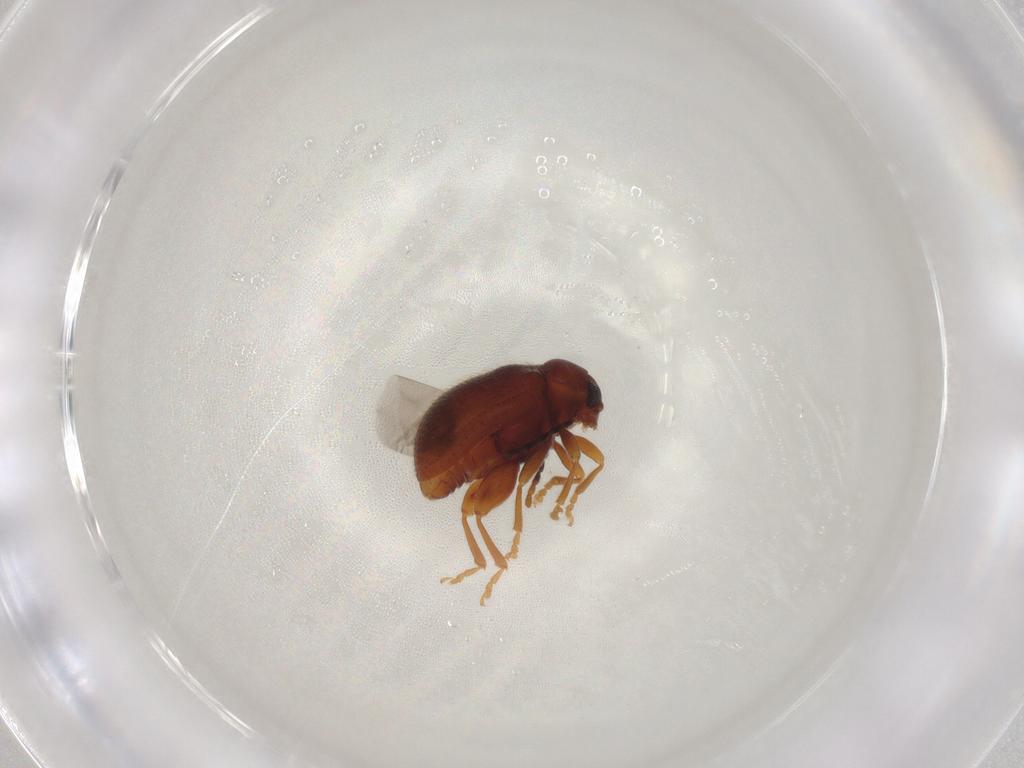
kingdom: Animalia
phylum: Arthropoda
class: Insecta
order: Coleoptera
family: Chrysomelidae
